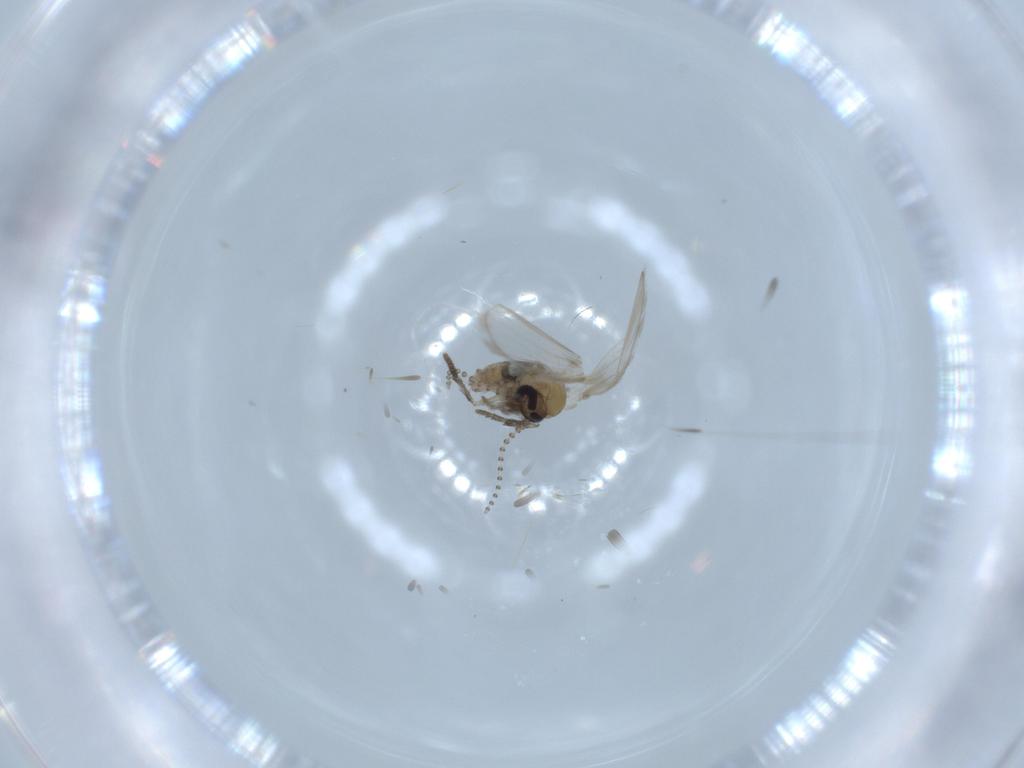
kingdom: Animalia
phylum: Arthropoda
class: Insecta
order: Diptera
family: Psychodidae
